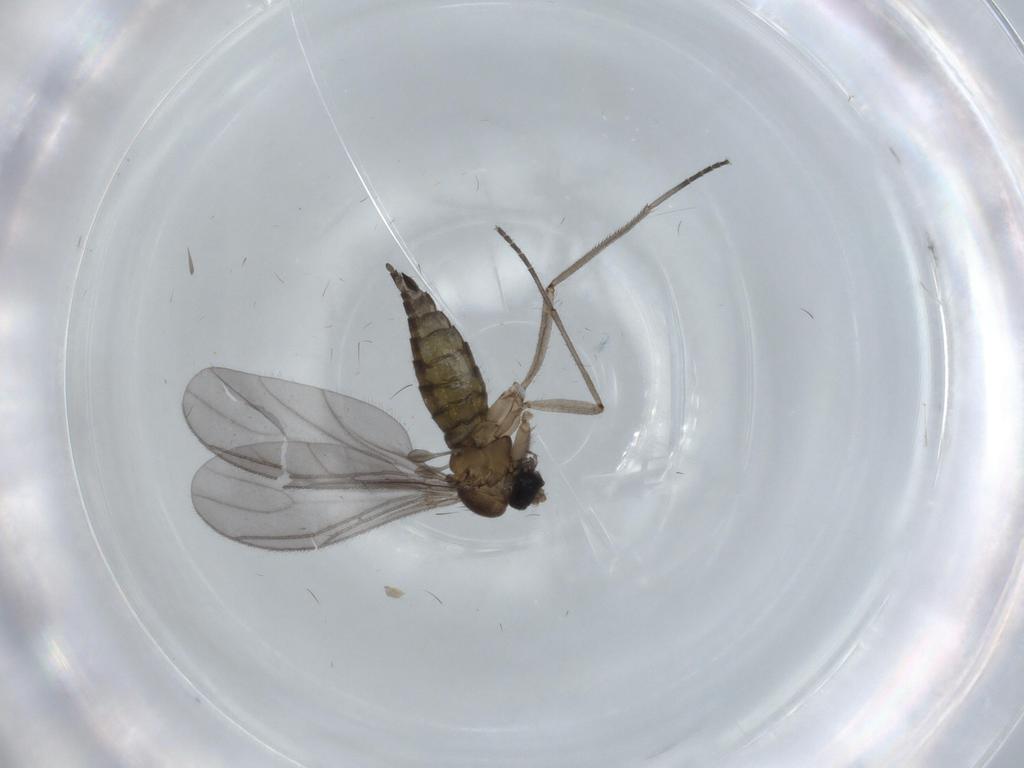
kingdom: Animalia
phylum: Arthropoda
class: Insecta
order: Diptera
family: Sciaridae
